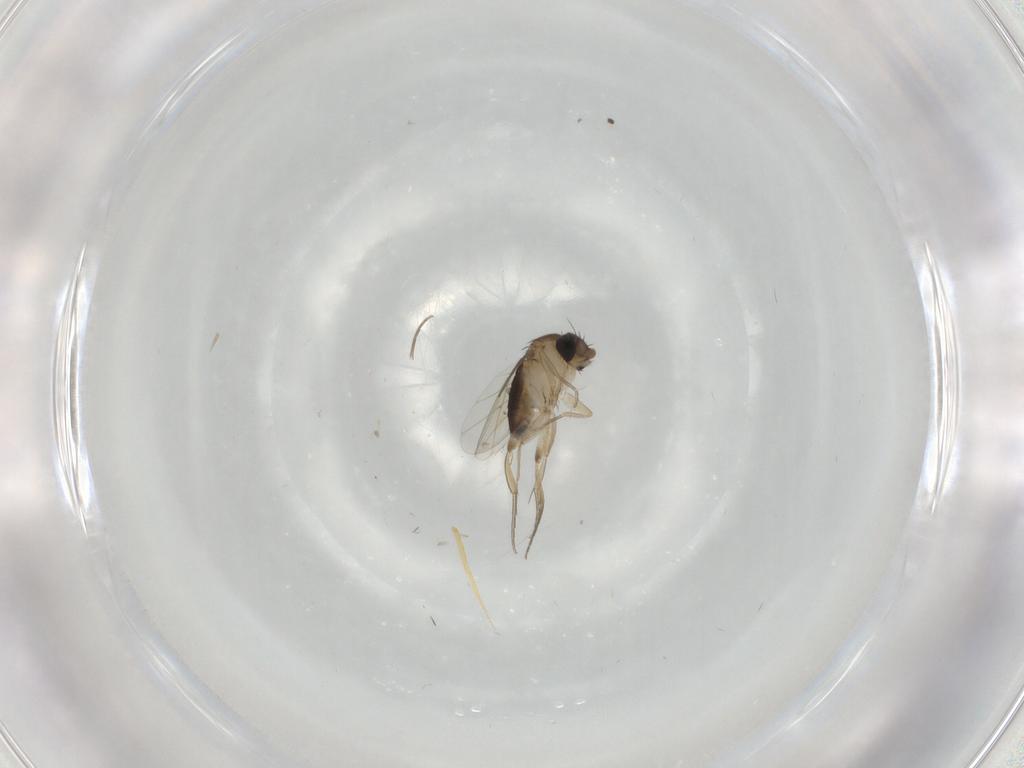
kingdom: Animalia
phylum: Arthropoda
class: Insecta
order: Diptera
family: Phoridae
